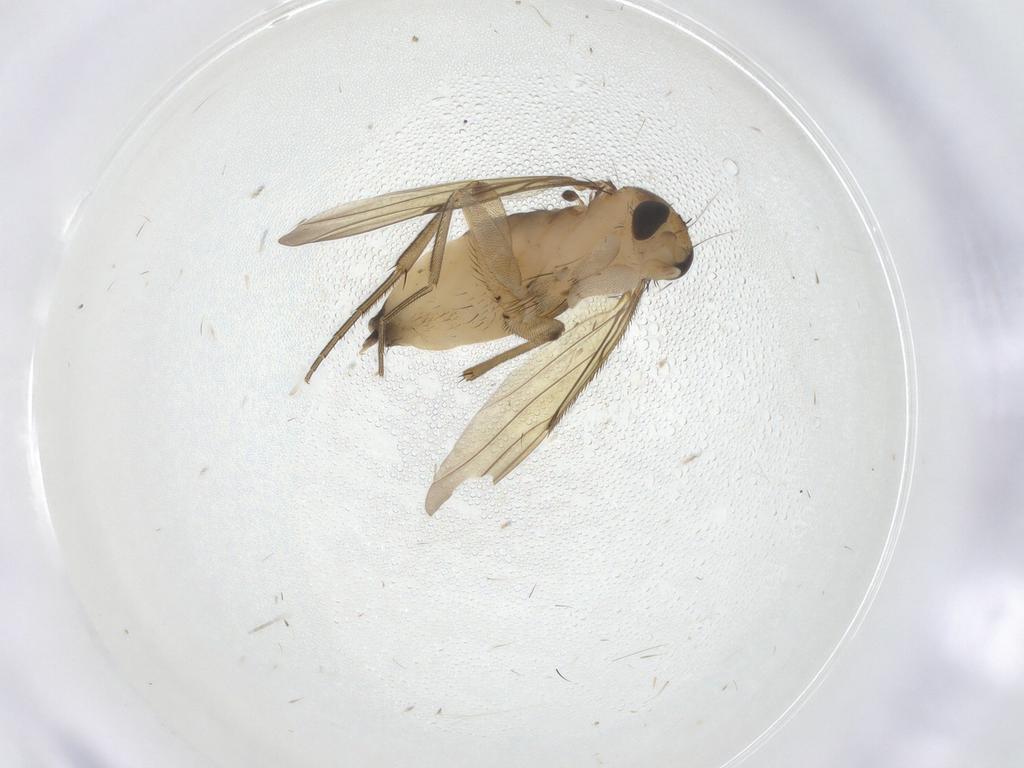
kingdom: Animalia
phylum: Arthropoda
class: Insecta
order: Diptera
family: Phoridae
